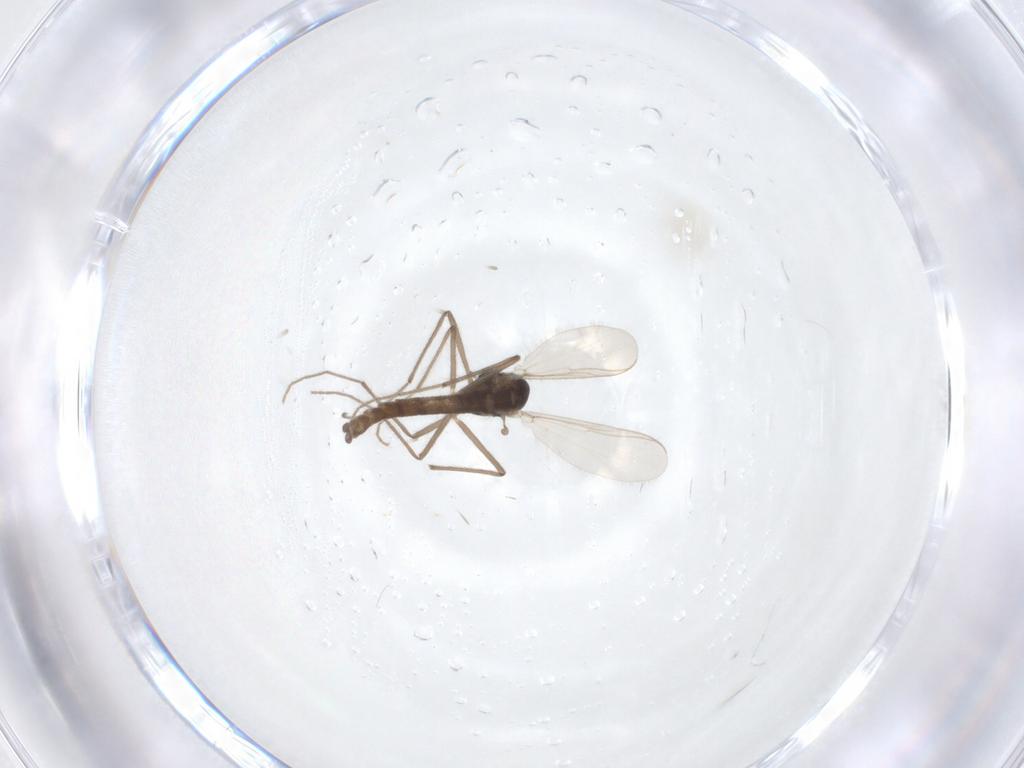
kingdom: Animalia
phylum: Arthropoda
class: Insecta
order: Diptera
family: Chironomidae
